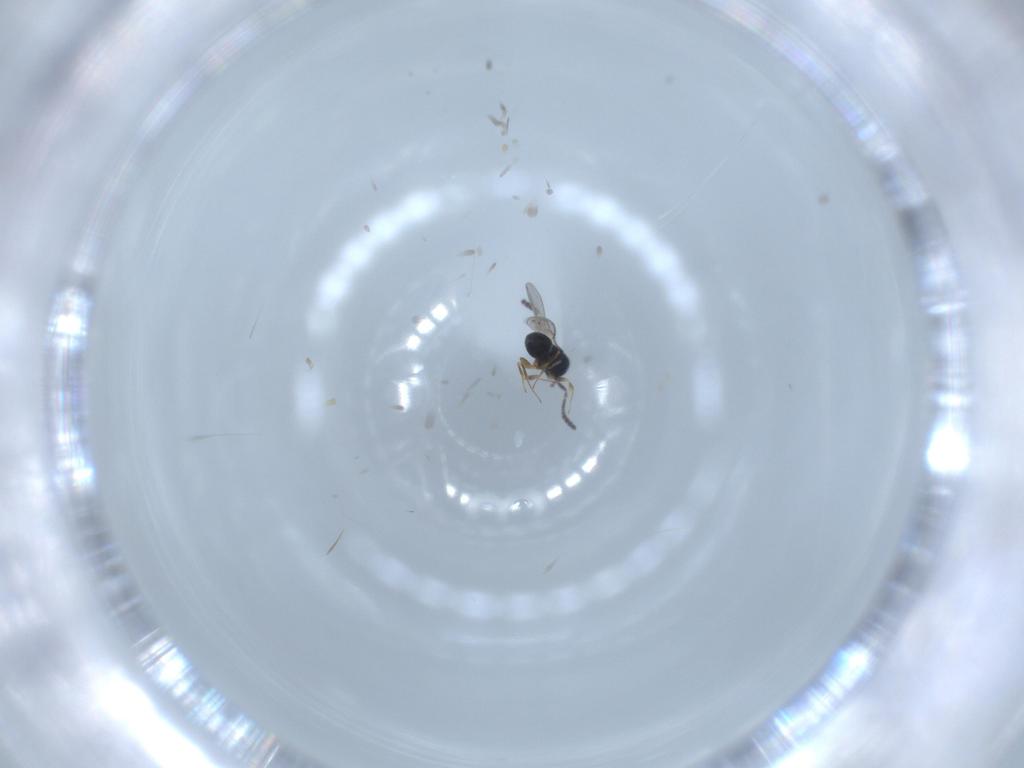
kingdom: Animalia
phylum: Arthropoda
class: Insecta
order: Hymenoptera
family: Scelionidae
